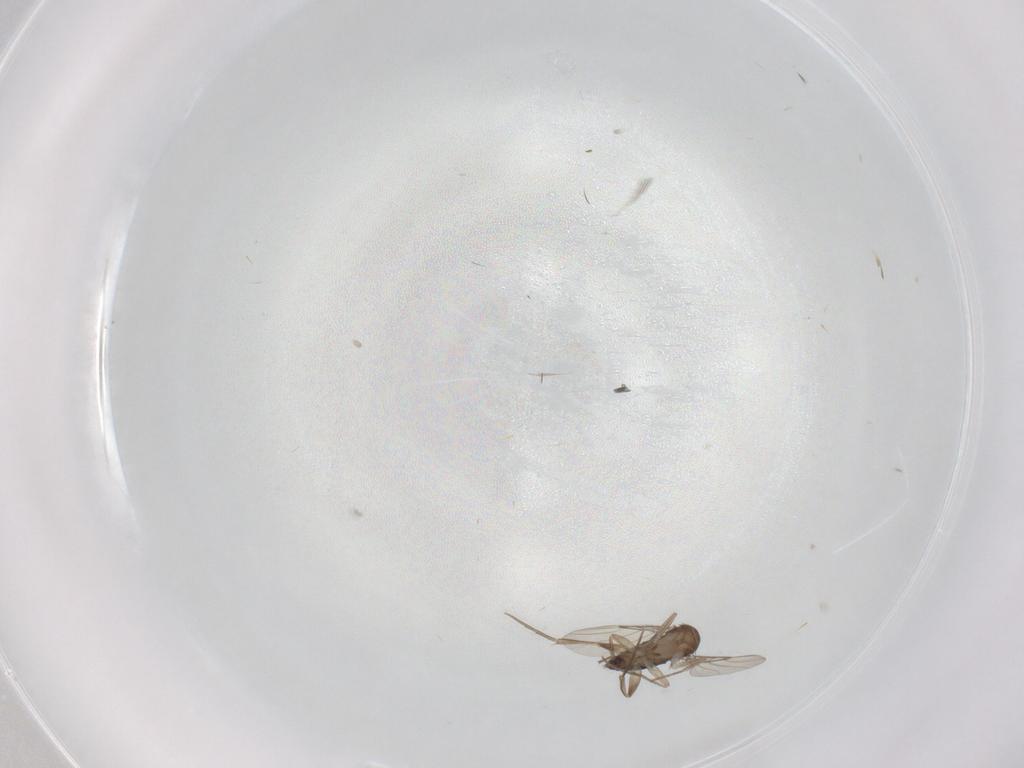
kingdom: Animalia
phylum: Arthropoda
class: Insecta
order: Diptera
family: Phoridae
